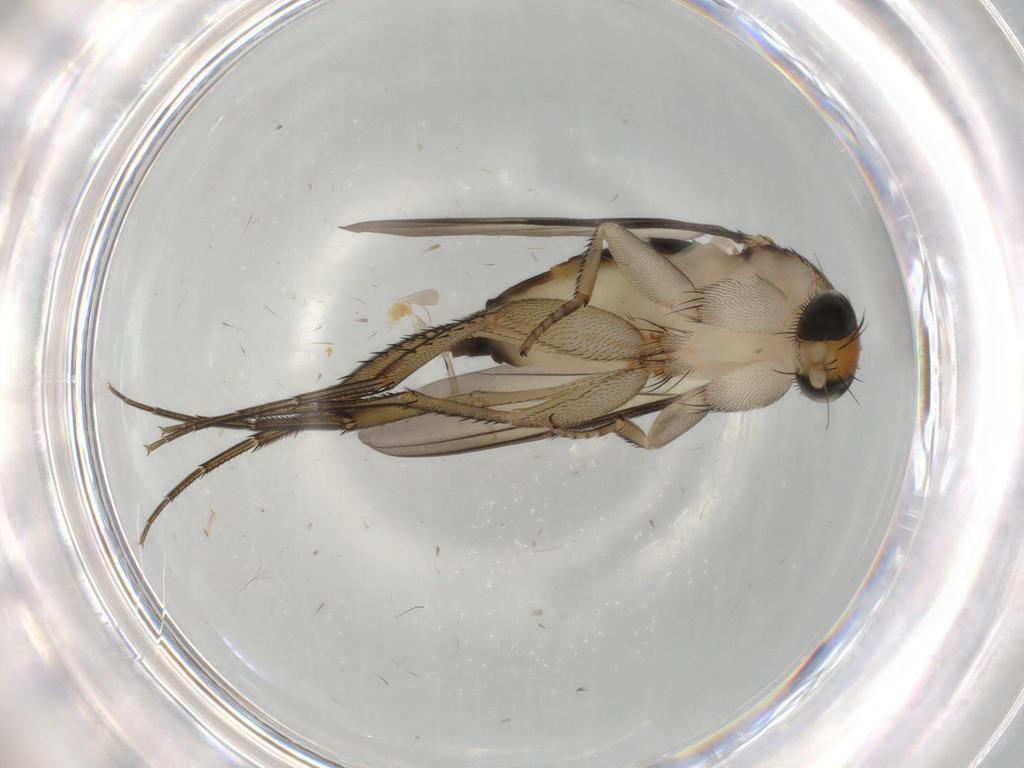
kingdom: Animalia
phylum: Arthropoda
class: Insecta
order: Diptera
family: Phoridae
